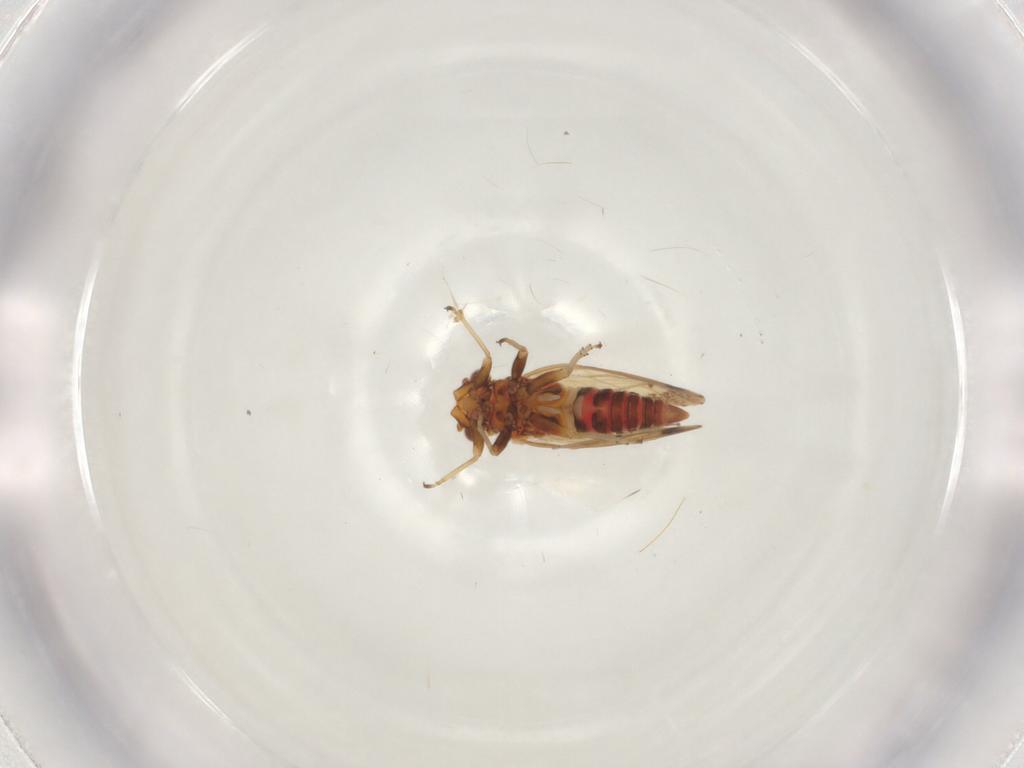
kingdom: Animalia
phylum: Arthropoda
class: Insecta
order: Hemiptera
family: Psyllidae
